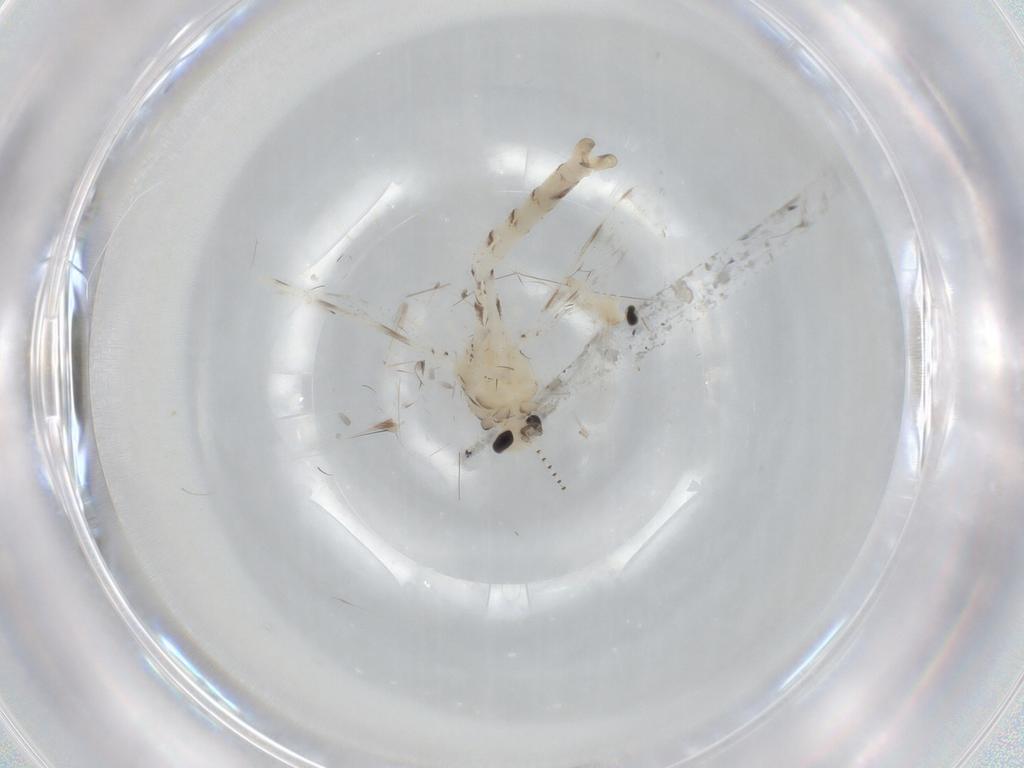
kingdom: Animalia
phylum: Arthropoda
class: Insecta
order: Diptera
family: Chaoboridae
